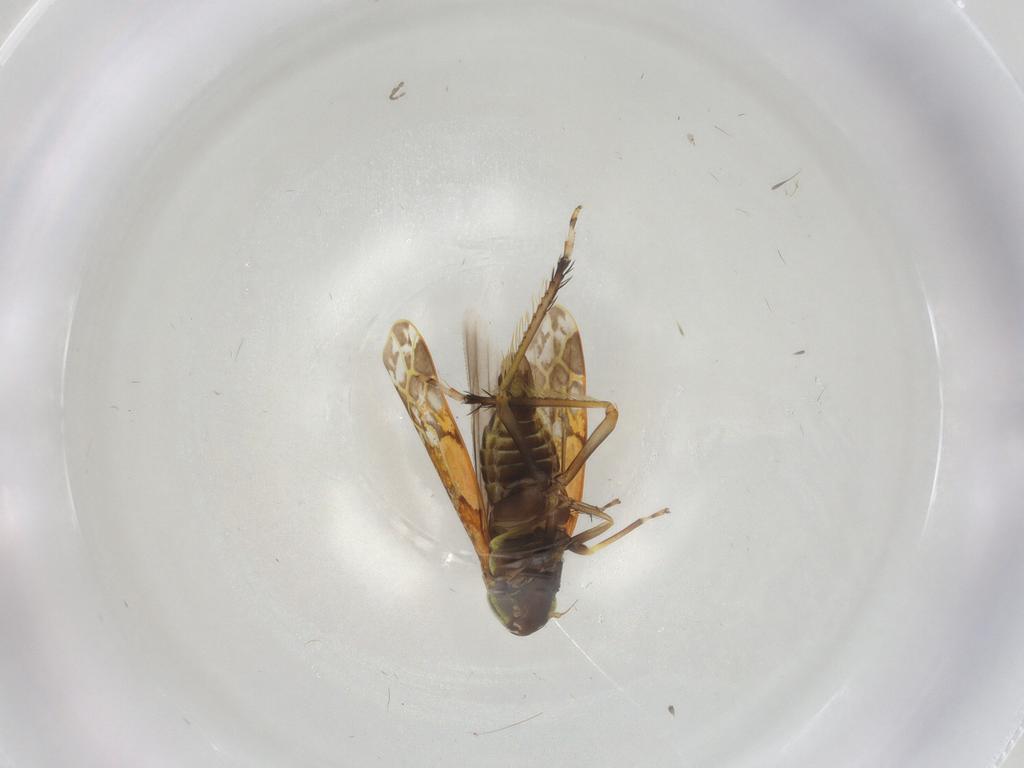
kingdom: Animalia
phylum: Arthropoda
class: Insecta
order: Hemiptera
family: Cicadellidae
